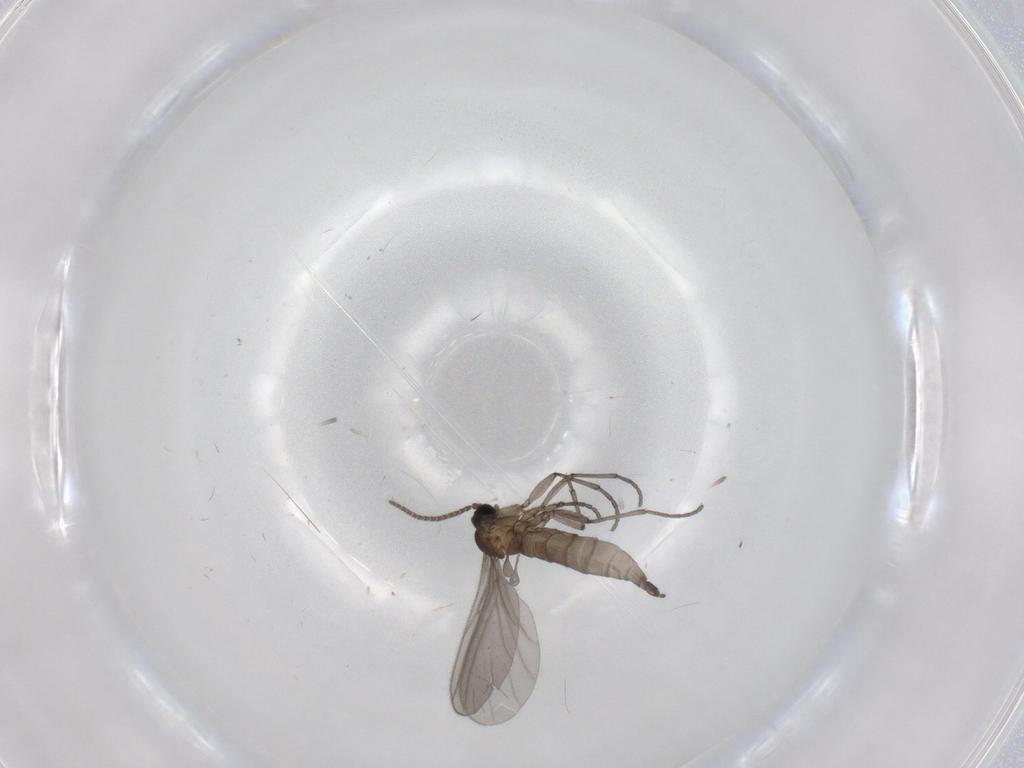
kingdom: Animalia
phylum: Arthropoda
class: Insecta
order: Diptera
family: Sciaridae
